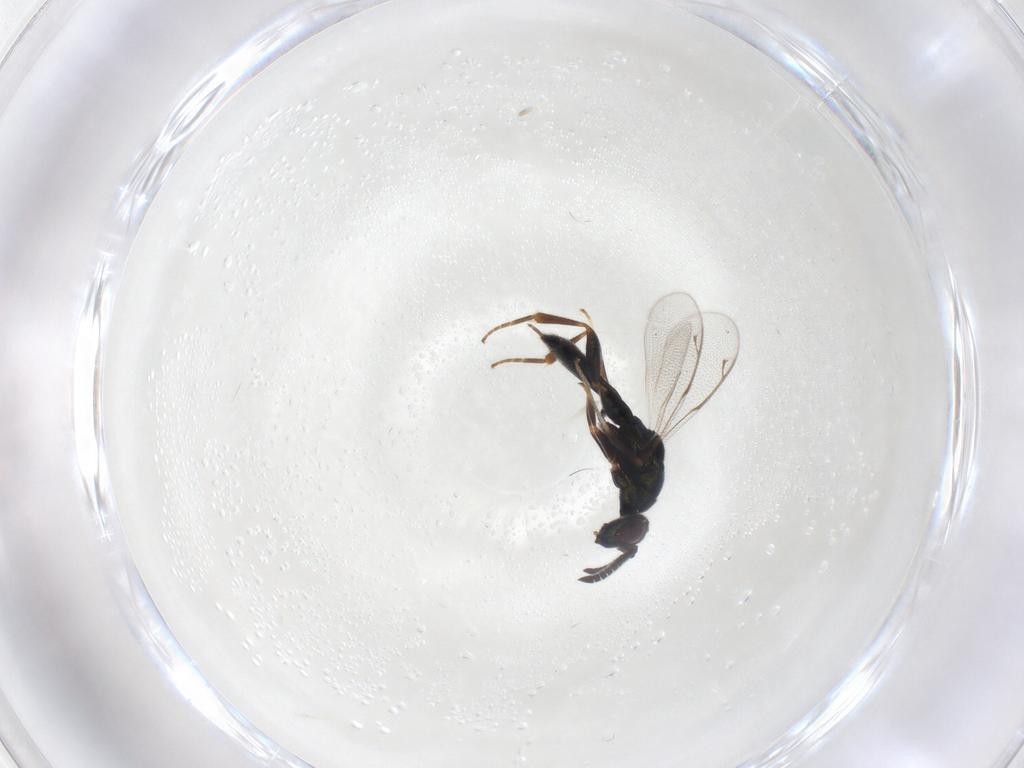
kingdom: Animalia
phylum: Arthropoda
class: Insecta
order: Hymenoptera
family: Cleonyminae
